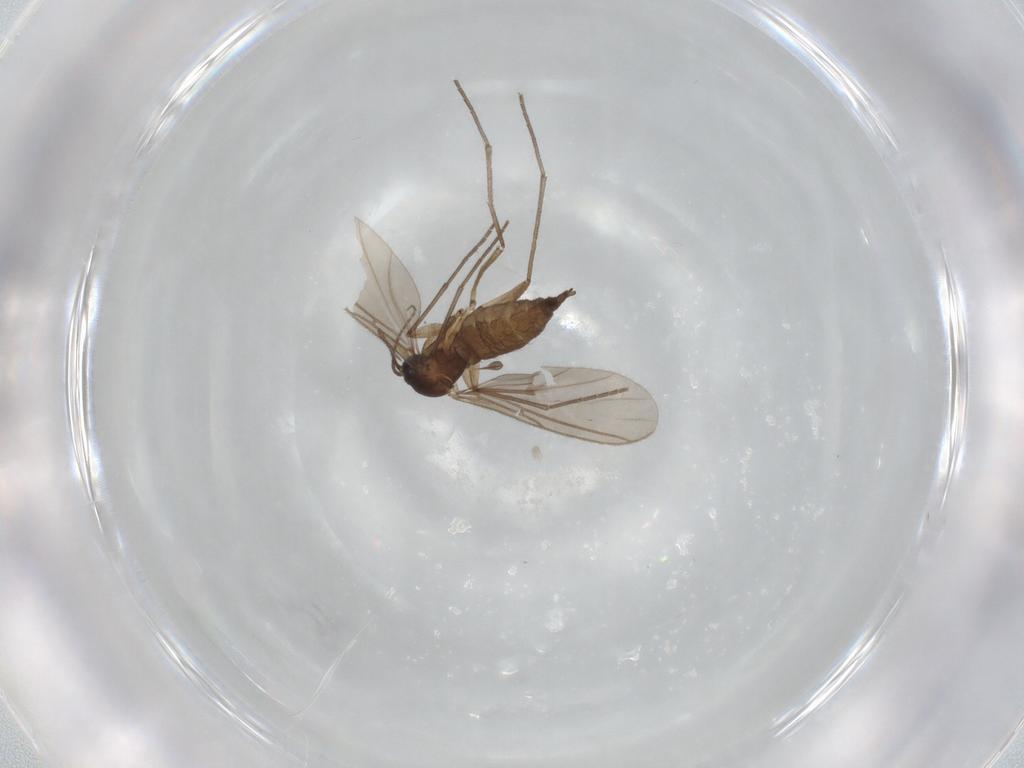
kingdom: Animalia
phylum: Arthropoda
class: Insecta
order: Diptera
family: Sciaridae
